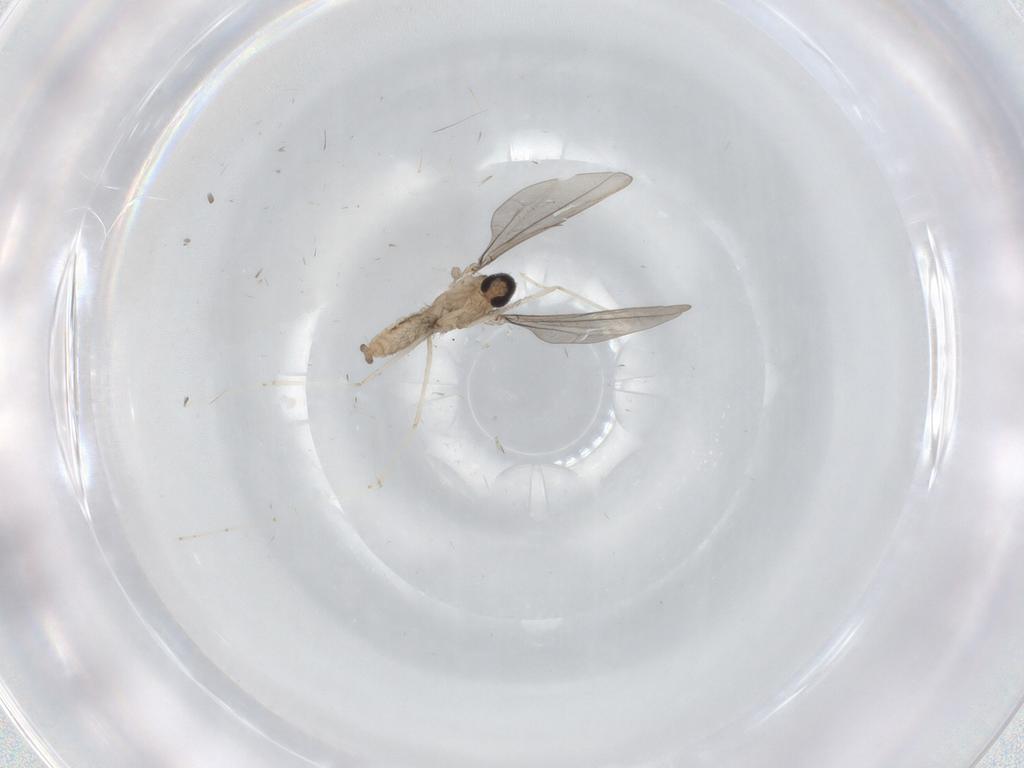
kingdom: Animalia
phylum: Arthropoda
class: Insecta
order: Diptera
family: Cecidomyiidae
